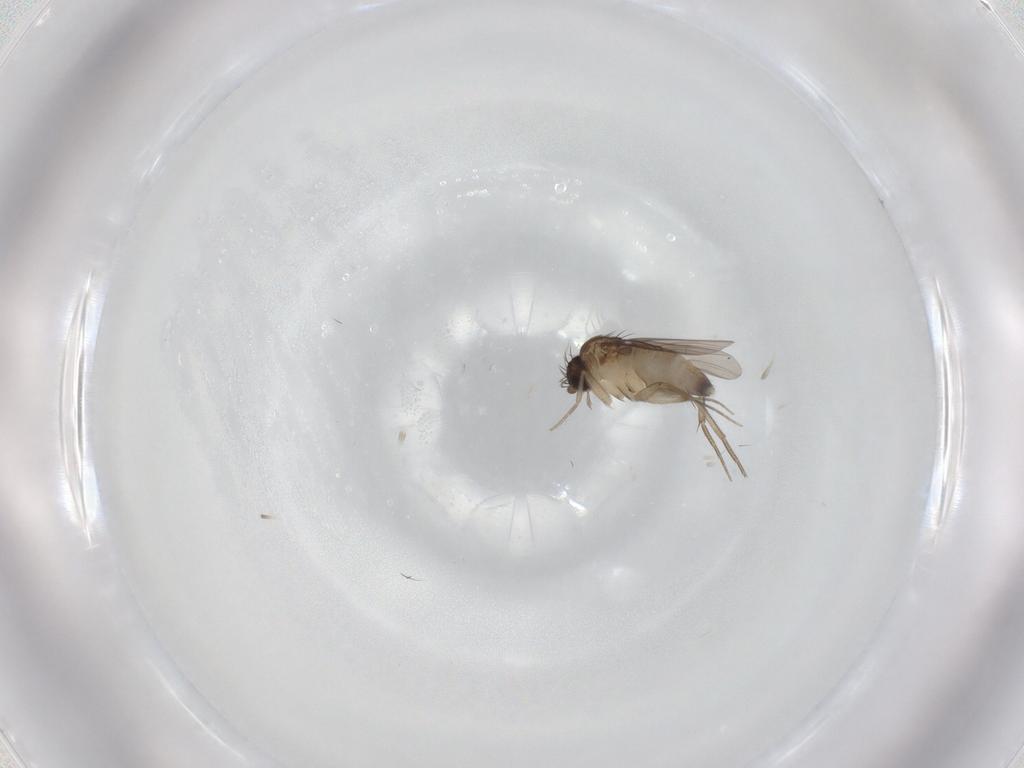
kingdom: Animalia
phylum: Arthropoda
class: Insecta
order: Diptera
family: Phoridae
